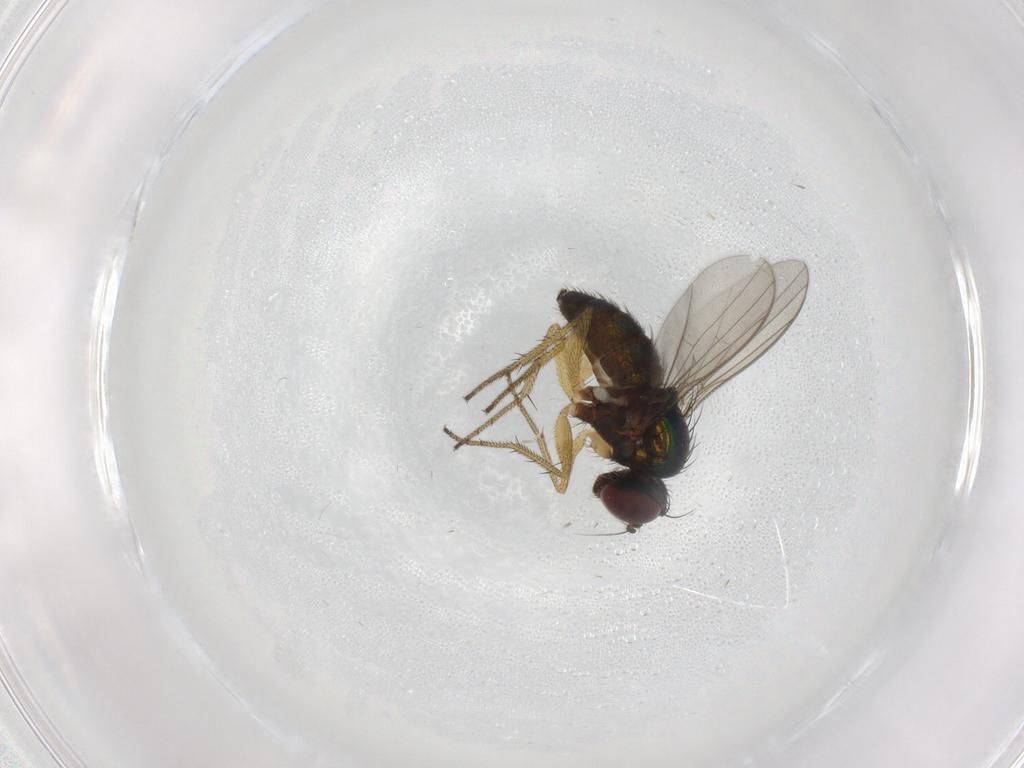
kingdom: Animalia
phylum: Arthropoda
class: Insecta
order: Diptera
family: Dolichopodidae
